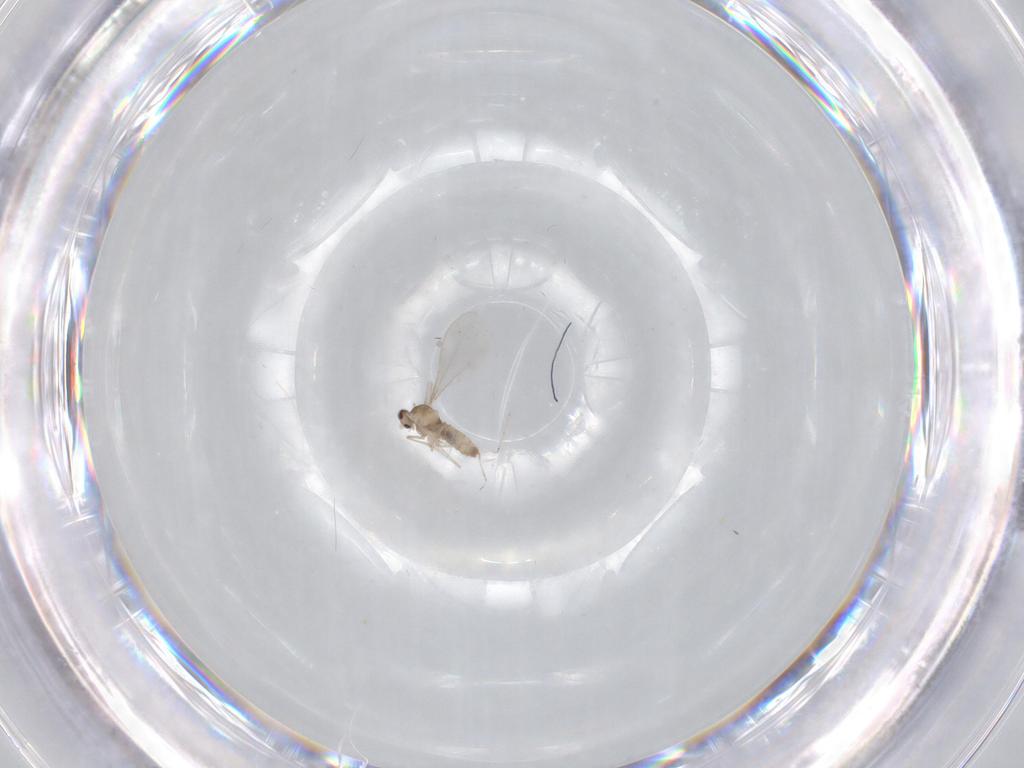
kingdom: Animalia
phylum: Arthropoda
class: Insecta
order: Diptera
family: Cecidomyiidae
